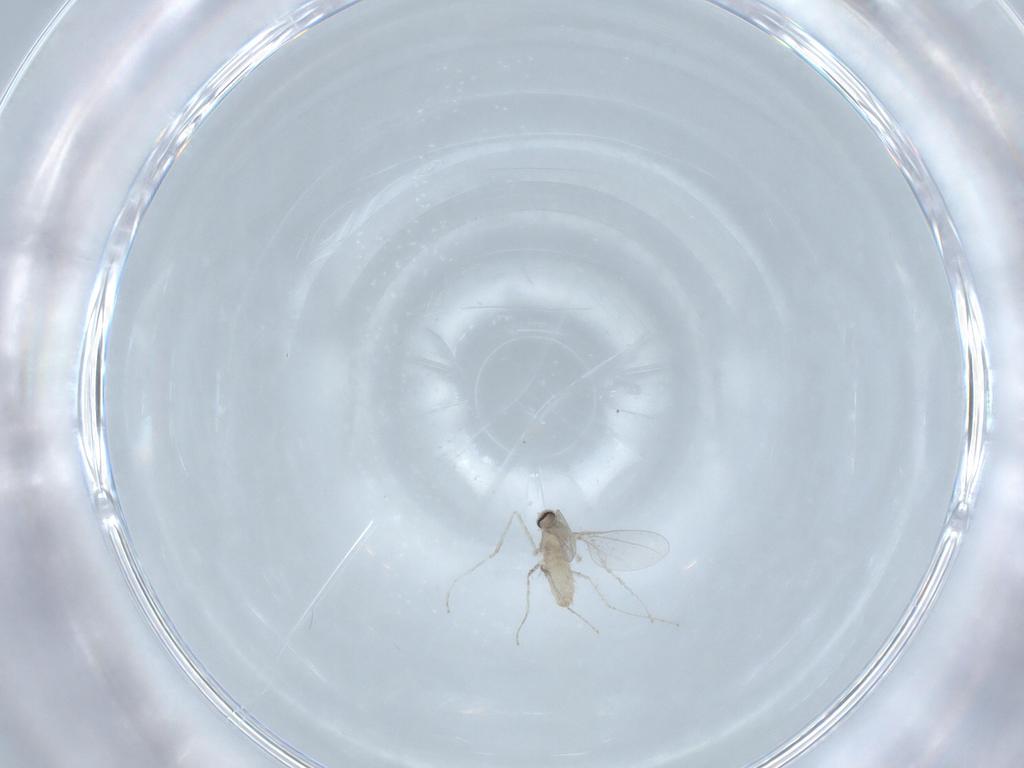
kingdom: Animalia
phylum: Arthropoda
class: Insecta
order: Diptera
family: Cecidomyiidae
